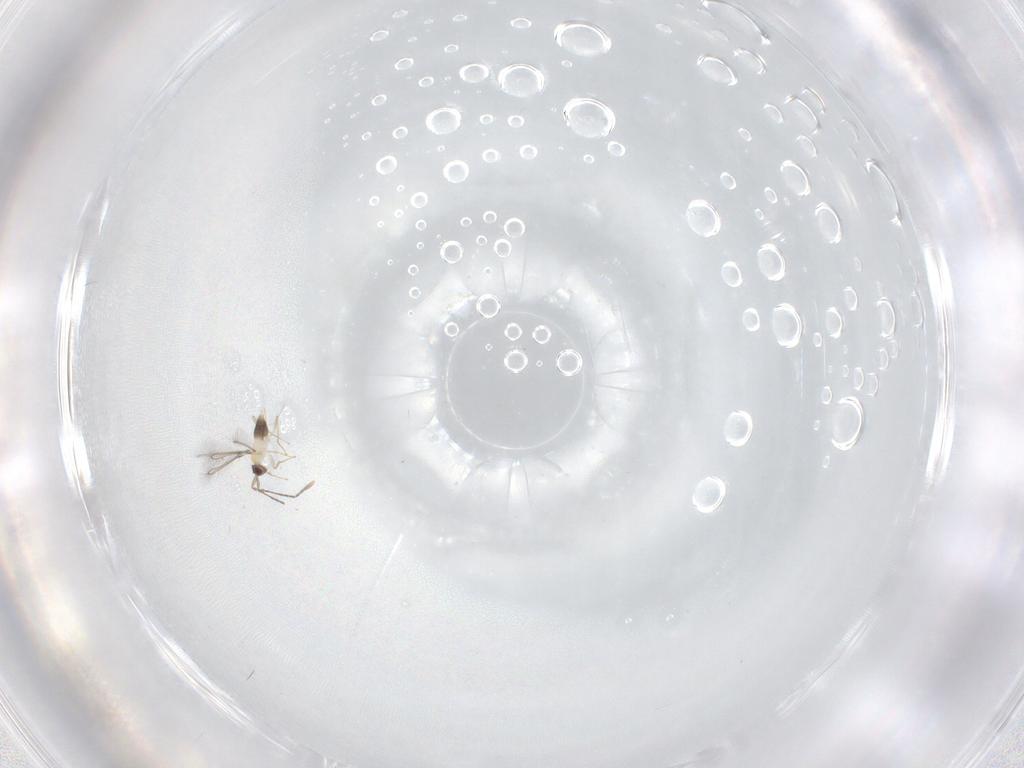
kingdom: Animalia
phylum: Arthropoda
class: Insecta
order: Hymenoptera
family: Mymaridae
